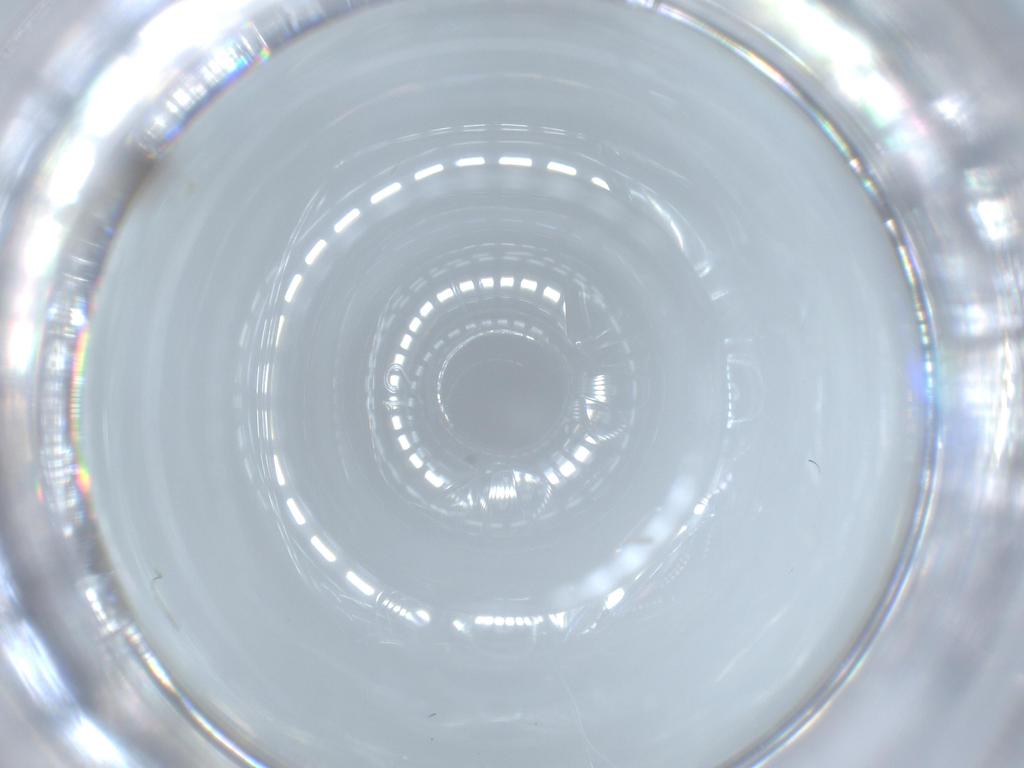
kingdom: Animalia
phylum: Arthropoda
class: Insecta
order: Hymenoptera
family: Mymaridae
